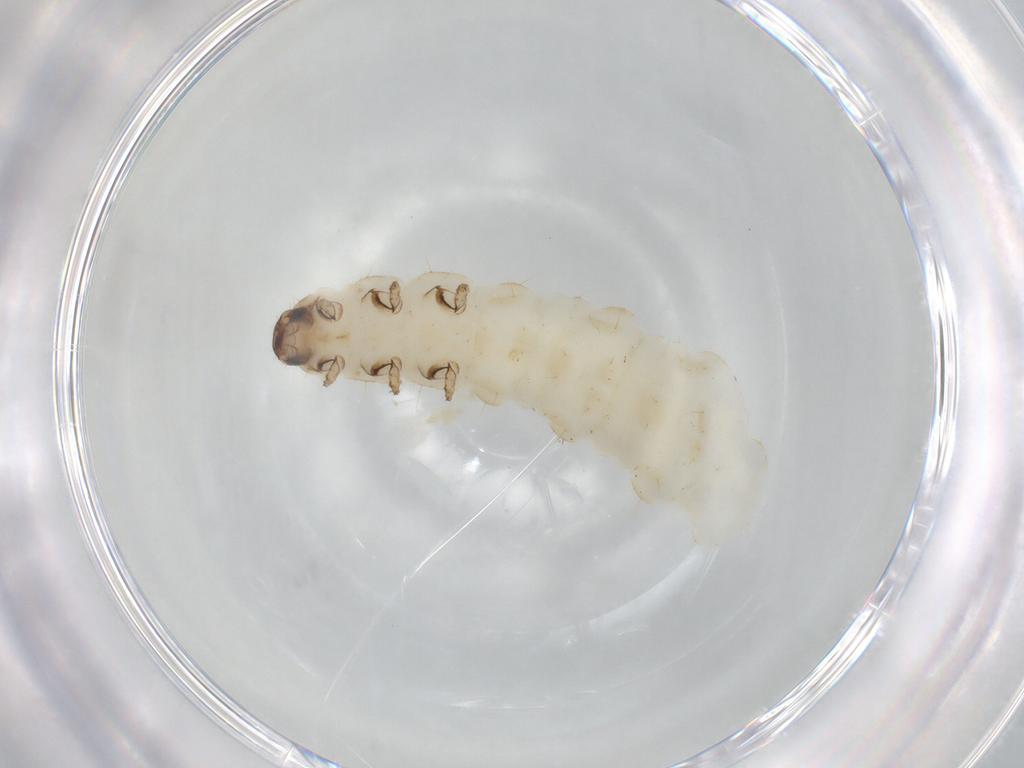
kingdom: Animalia
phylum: Arthropoda
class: Insecta
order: Coleoptera
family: Chrysomelidae
